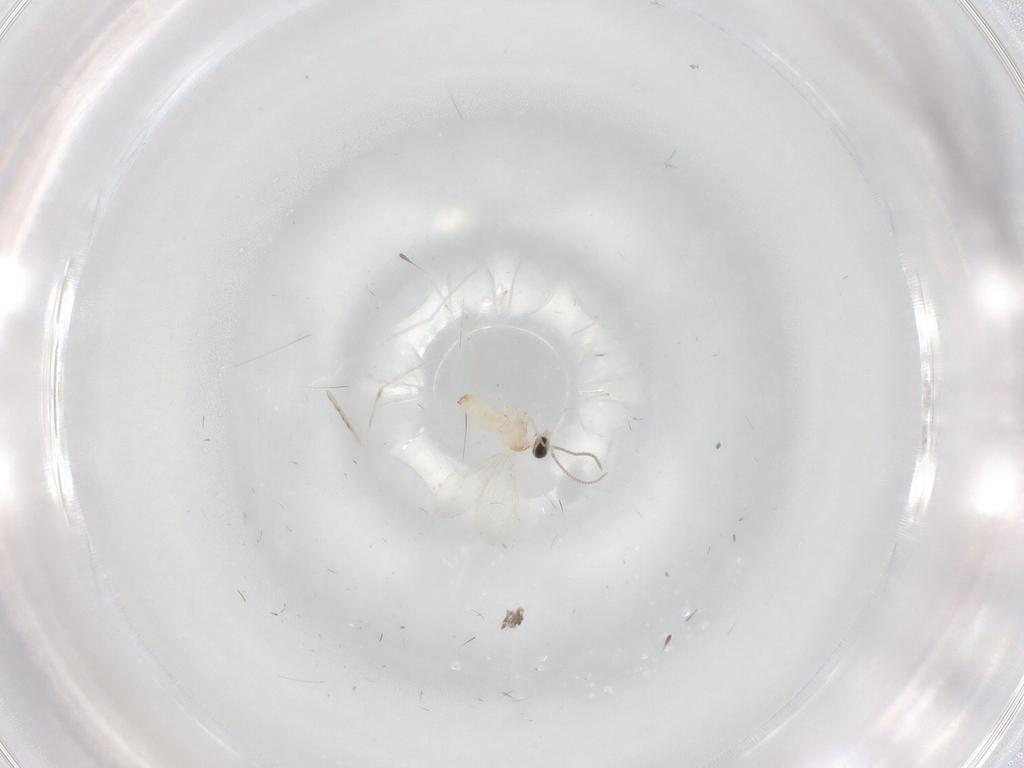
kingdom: Animalia
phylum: Arthropoda
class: Insecta
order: Diptera
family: Cecidomyiidae
